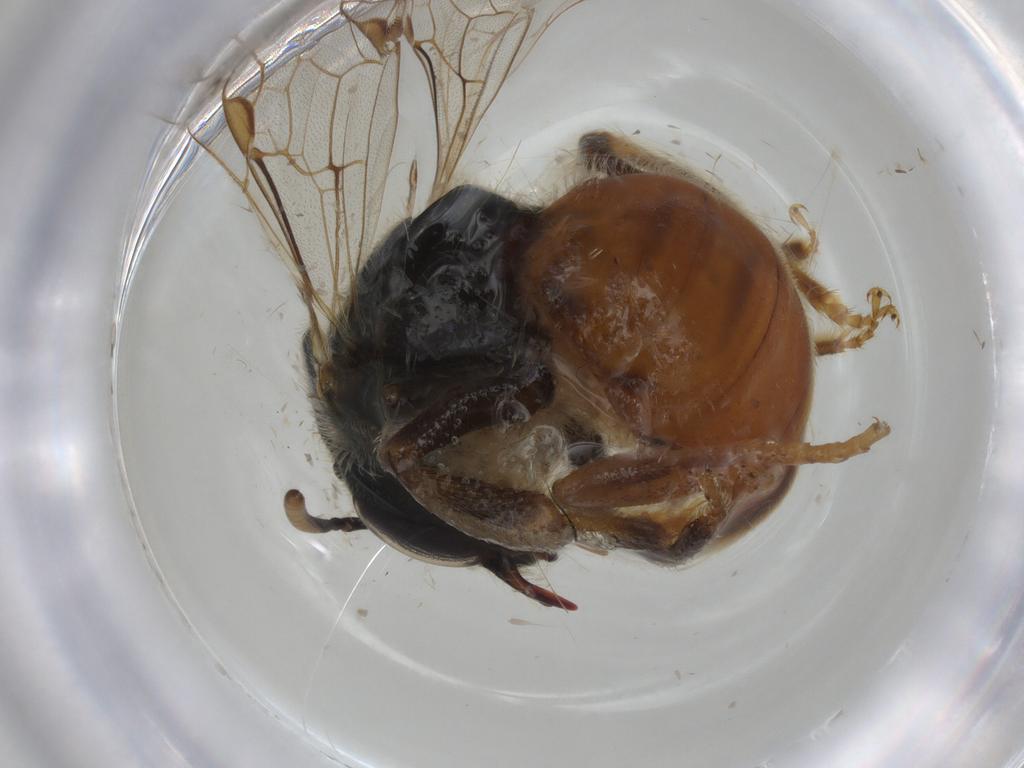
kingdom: Animalia
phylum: Arthropoda
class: Insecta
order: Hymenoptera
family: Halictidae
